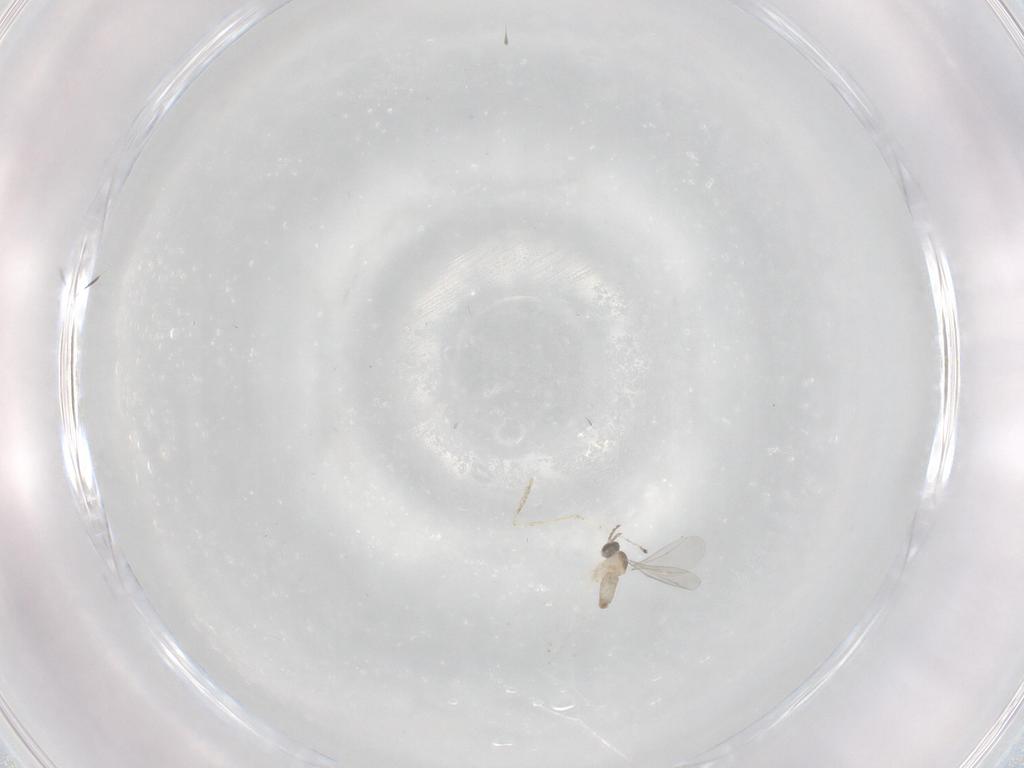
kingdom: Animalia
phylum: Arthropoda
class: Insecta
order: Diptera
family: Cecidomyiidae
